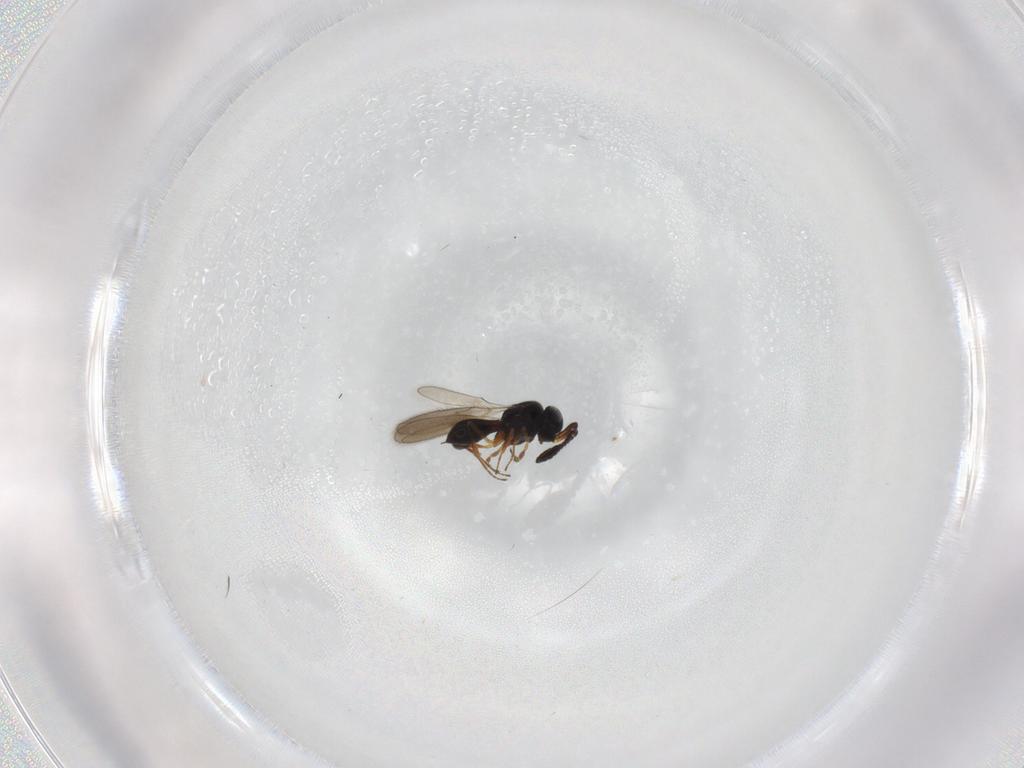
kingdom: Animalia
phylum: Arthropoda
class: Insecta
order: Hymenoptera
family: Scelionidae
